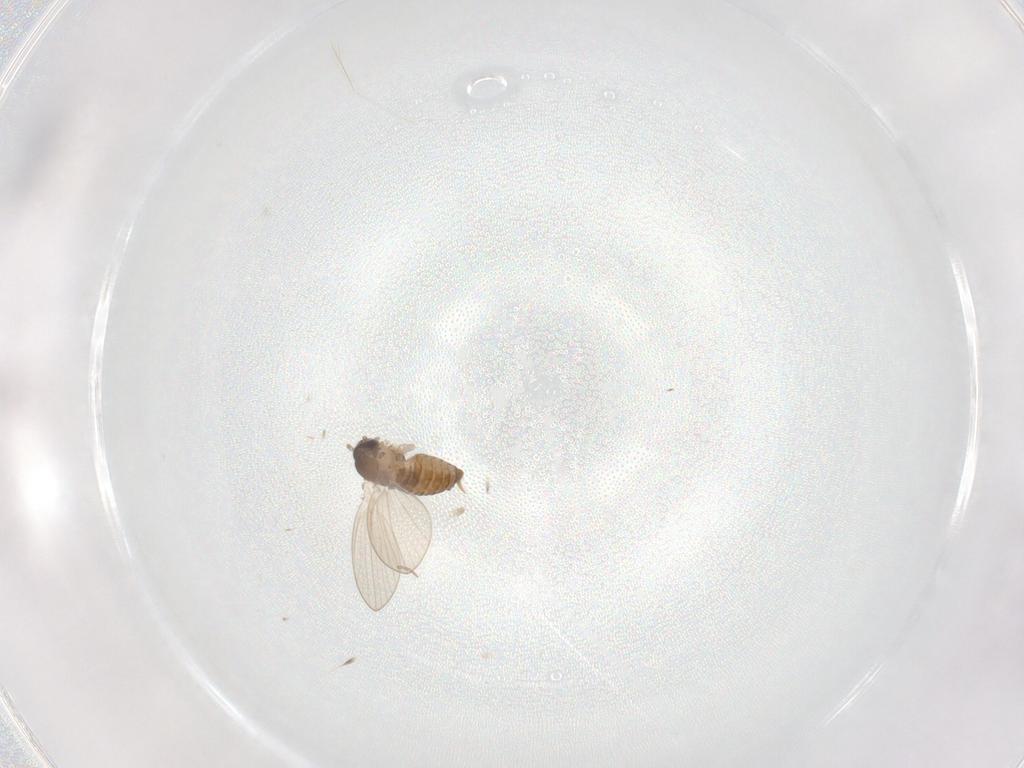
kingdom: Animalia
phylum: Arthropoda
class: Insecta
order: Diptera
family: Psychodidae
